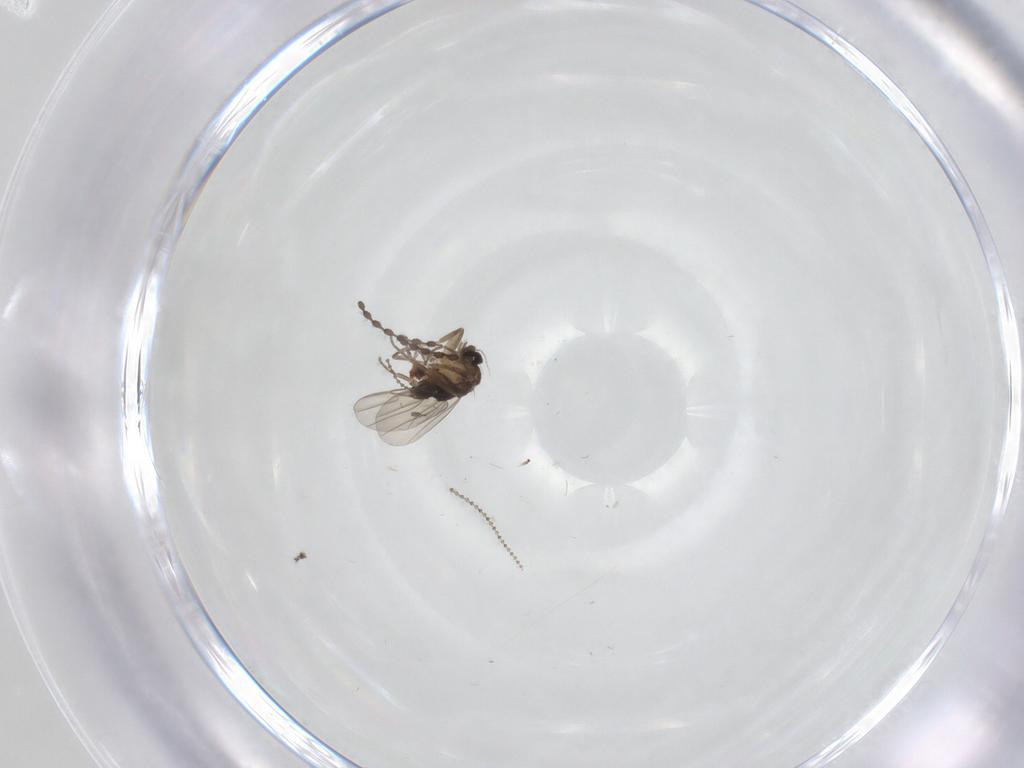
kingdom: Animalia
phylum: Arthropoda
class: Insecta
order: Diptera
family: Phoridae
